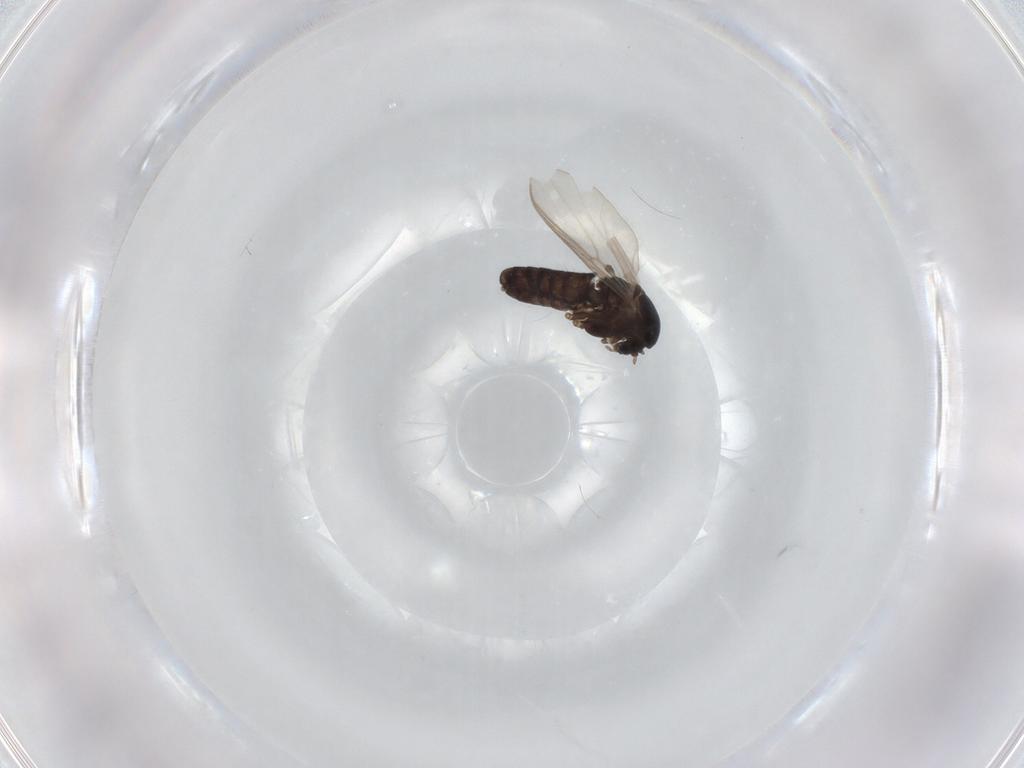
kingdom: Animalia
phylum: Arthropoda
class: Insecta
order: Diptera
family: Chironomidae
